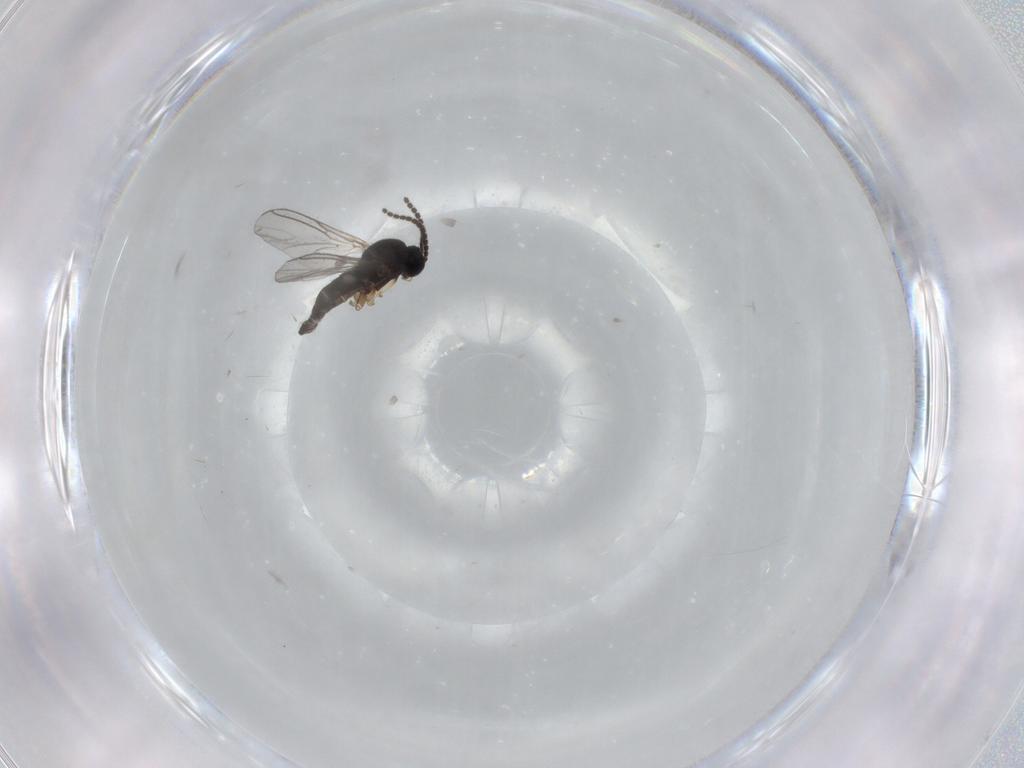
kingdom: Animalia
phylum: Arthropoda
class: Insecta
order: Diptera
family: Sciaridae
